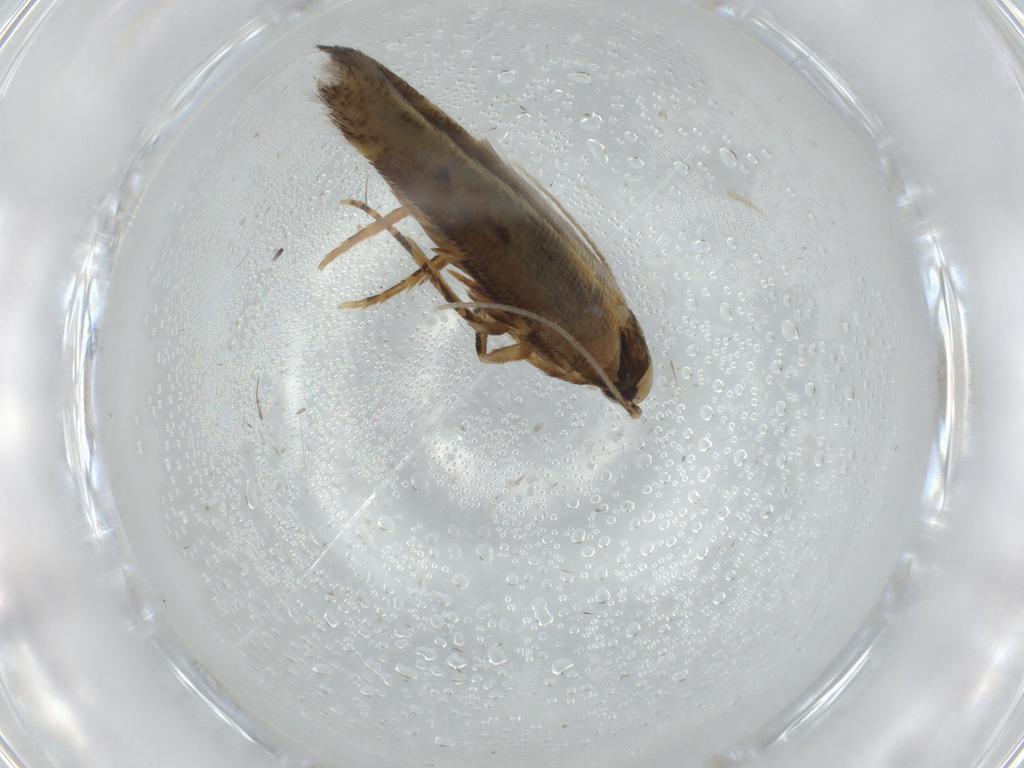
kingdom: Animalia
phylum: Arthropoda
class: Insecta
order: Lepidoptera
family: Cosmopterigidae
